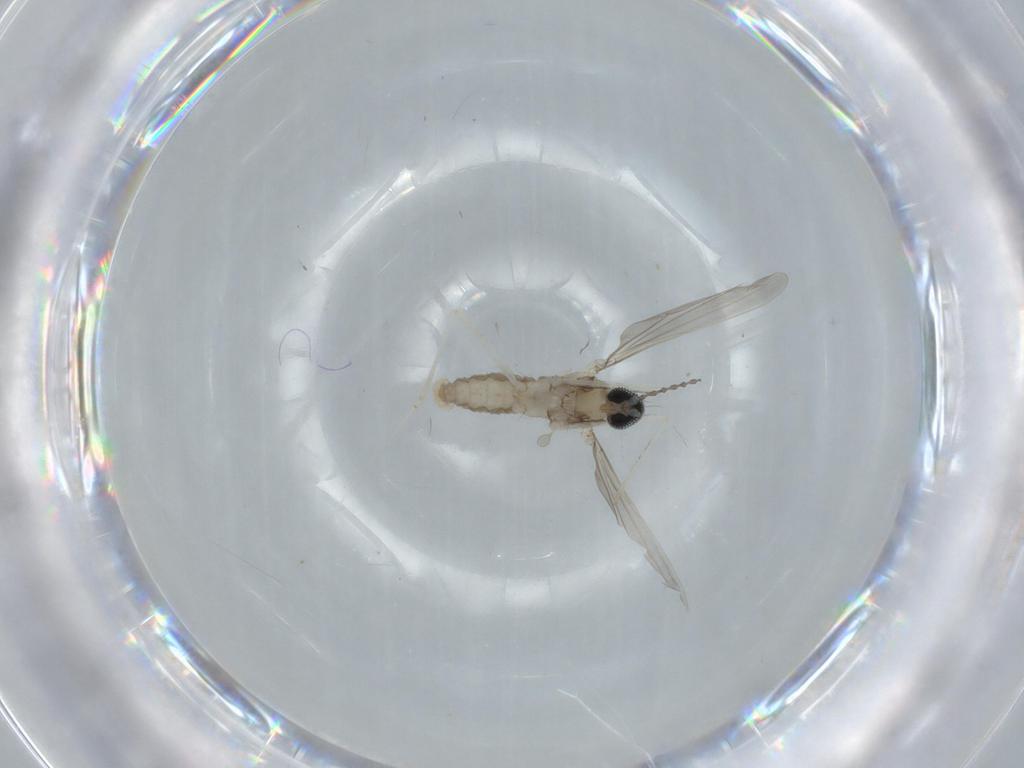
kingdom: Animalia
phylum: Arthropoda
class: Insecta
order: Diptera
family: Cecidomyiidae
